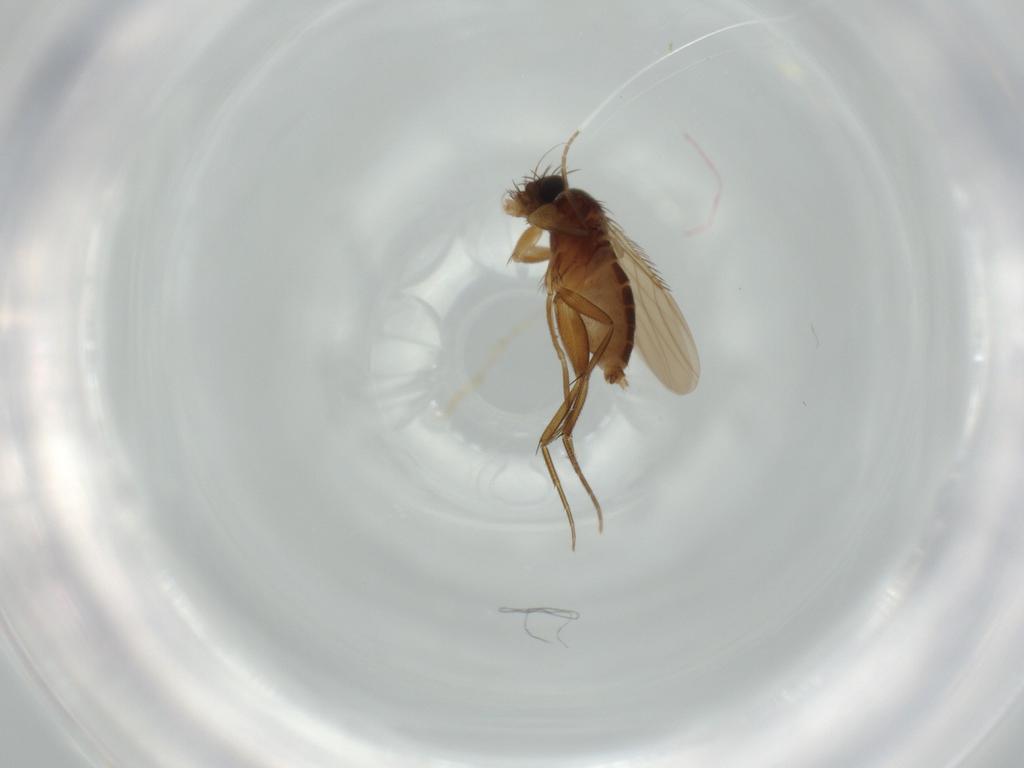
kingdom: Animalia
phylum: Arthropoda
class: Insecta
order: Diptera
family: Phoridae
